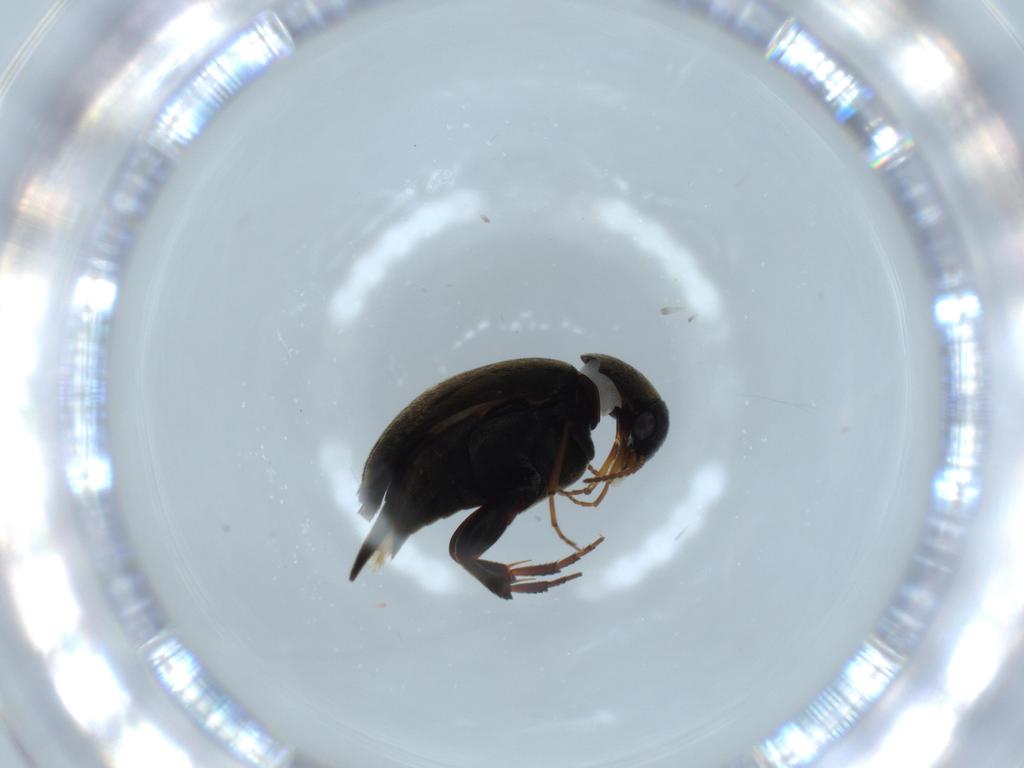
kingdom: Animalia
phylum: Arthropoda
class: Insecta
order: Coleoptera
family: Mordellidae
